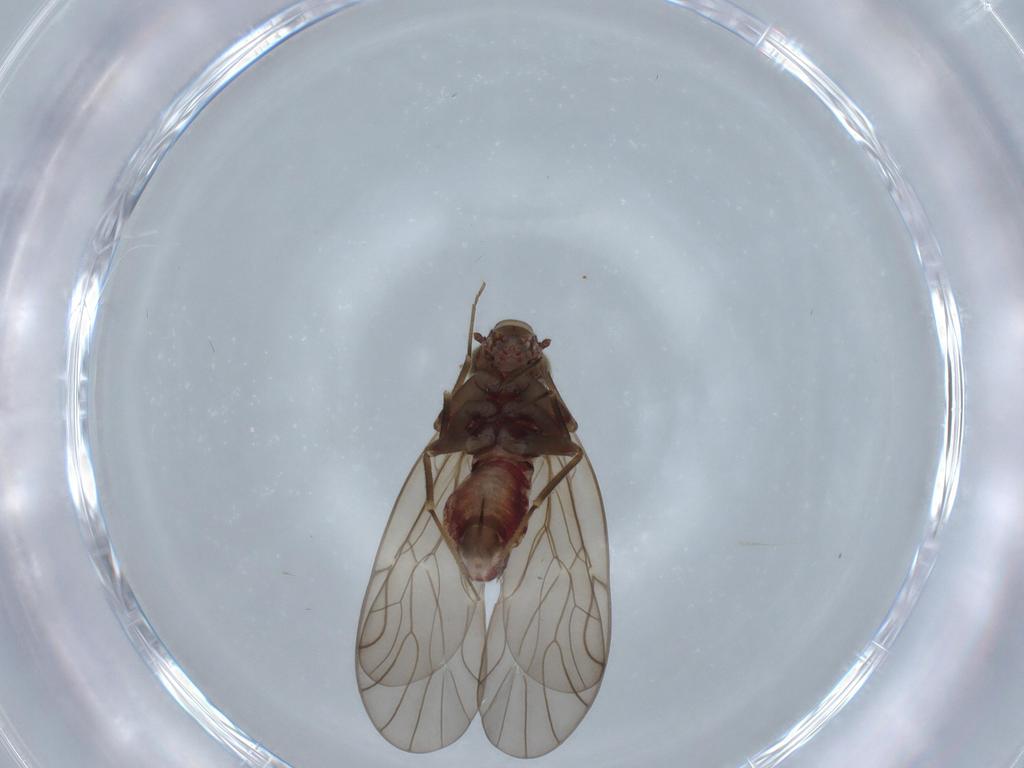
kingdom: Animalia
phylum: Arthropoda
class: Insecta
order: Psocodea
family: Philotarsidae
